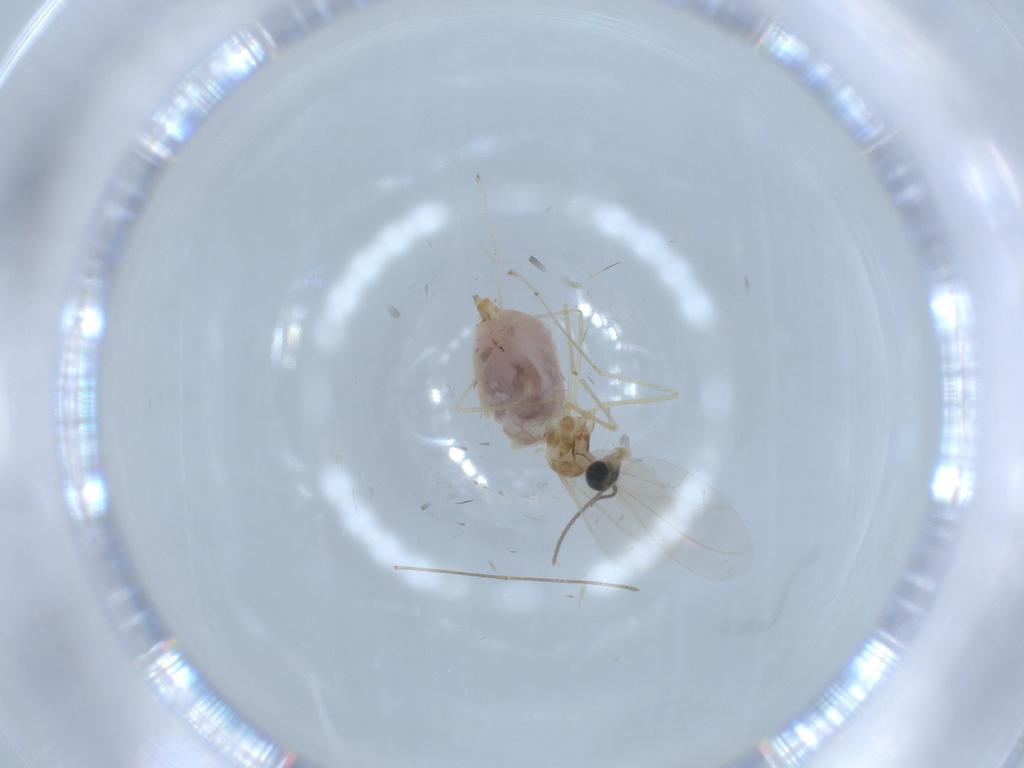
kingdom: Animalia
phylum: Arthropoda
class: Insecta
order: Diptera
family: Cecidomyiidae
